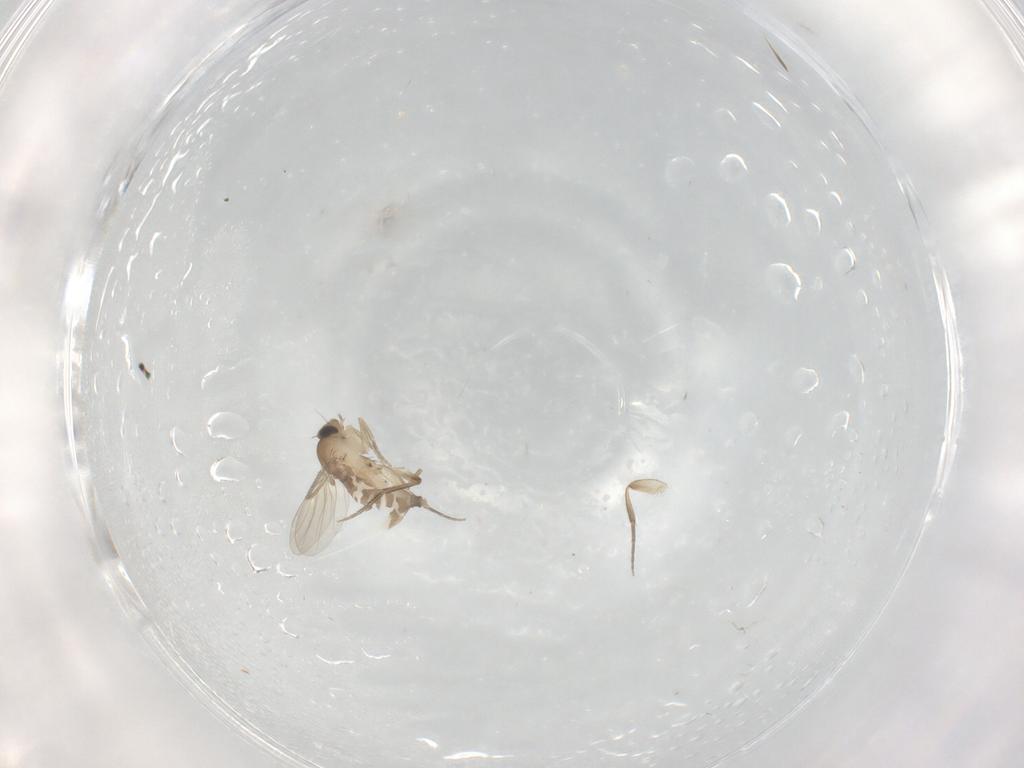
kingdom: Animalia
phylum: Arthropoda
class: Insecta
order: Diptera
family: Phoridae
